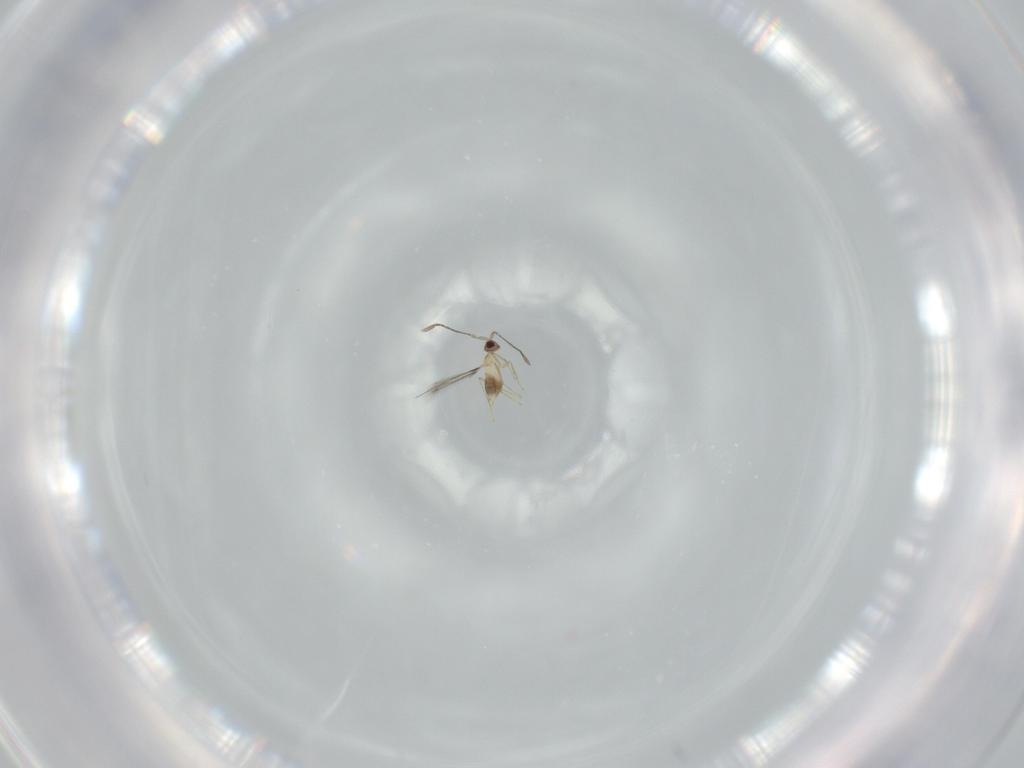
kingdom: Animalia
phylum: Arthropoda
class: Insecta
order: Hymenoptera
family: Mymaridae
